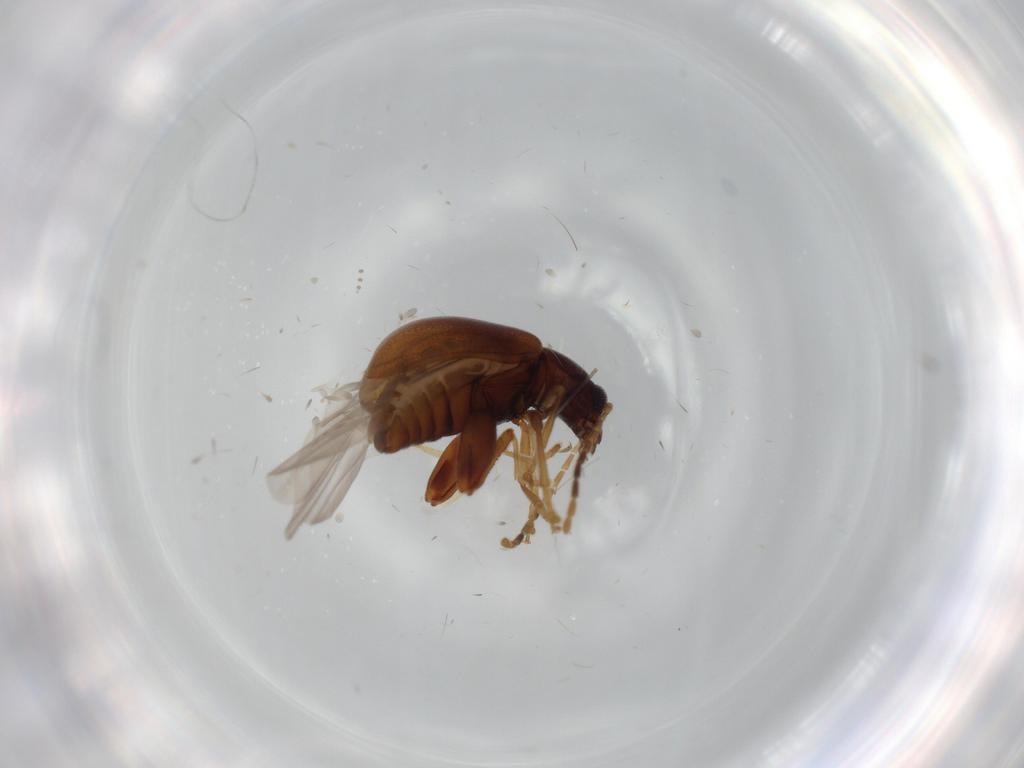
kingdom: Animalia
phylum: Arthropoda
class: Insecta
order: Coleoptera
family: Chrysomelidae
